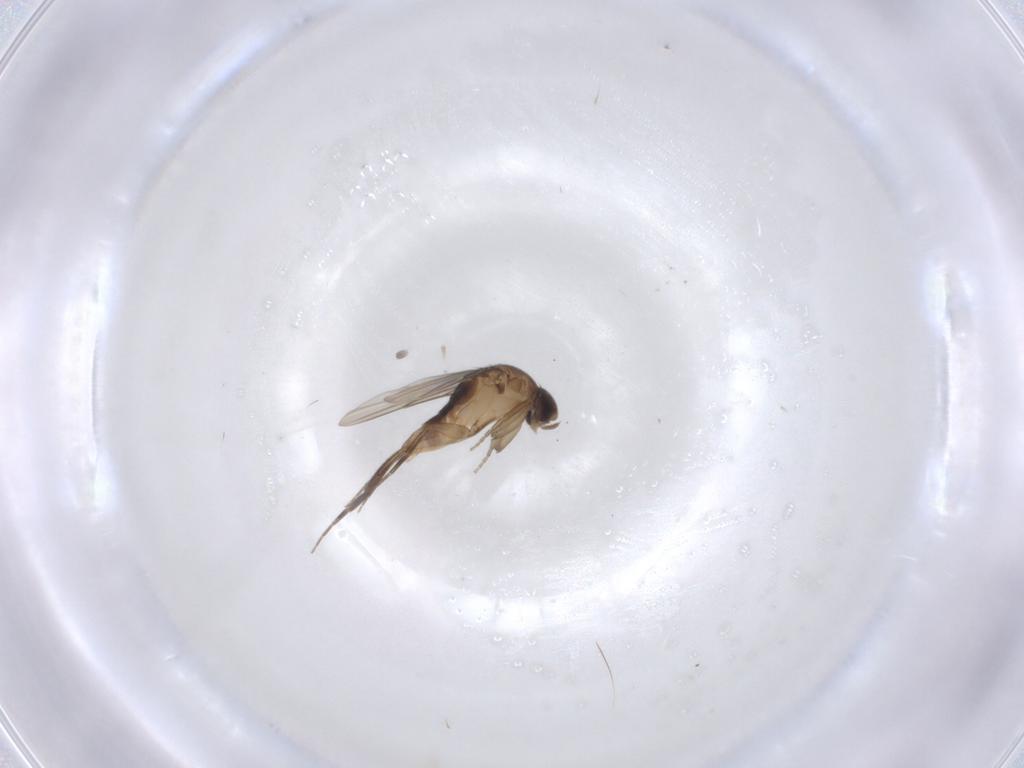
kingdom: Animalia
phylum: Arthropoda
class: Insecta
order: Diptera
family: Phoridae
